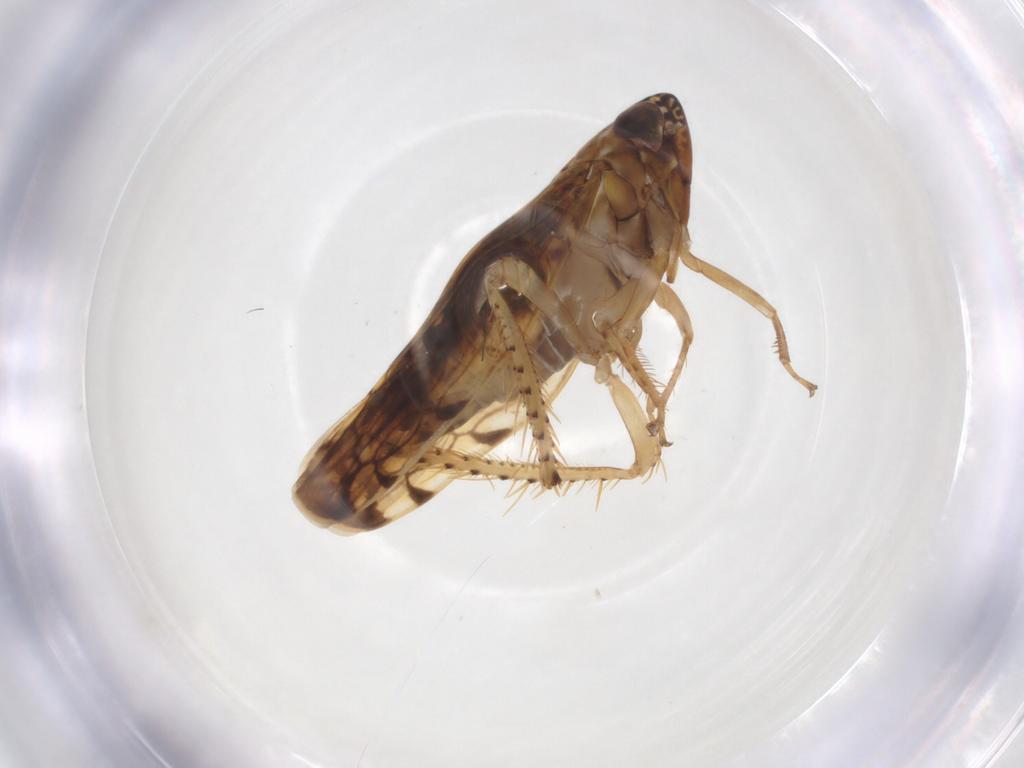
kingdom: Animalia
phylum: Arthropoda
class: Insecta
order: Hemiptera
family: Cicadellidae
